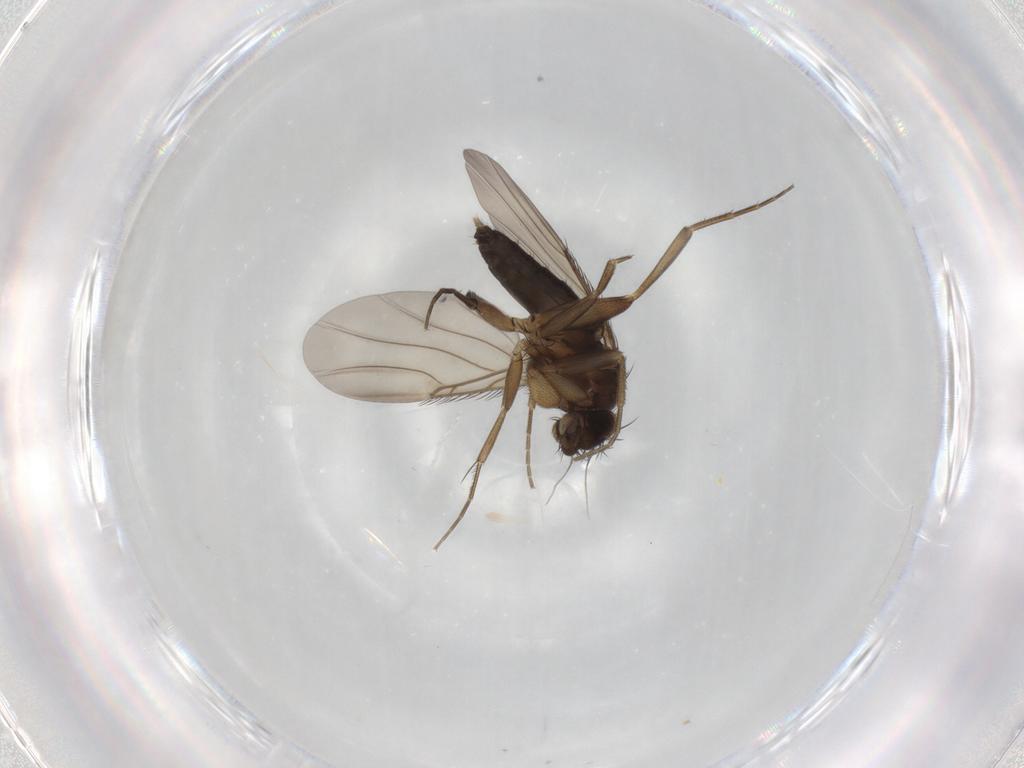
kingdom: Animalia
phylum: Arthropoda
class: Insecta
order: Diptera
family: Phoridae
